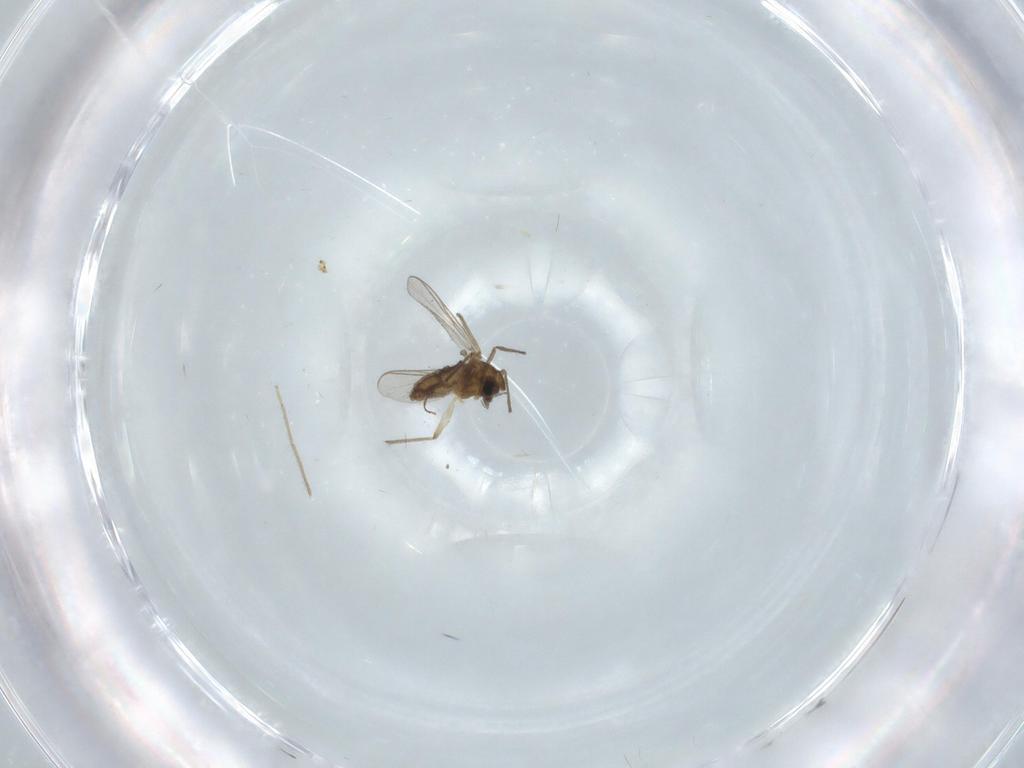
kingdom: Animalia
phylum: Arthropoda
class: Insecta
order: Diptera
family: Chironomidae
